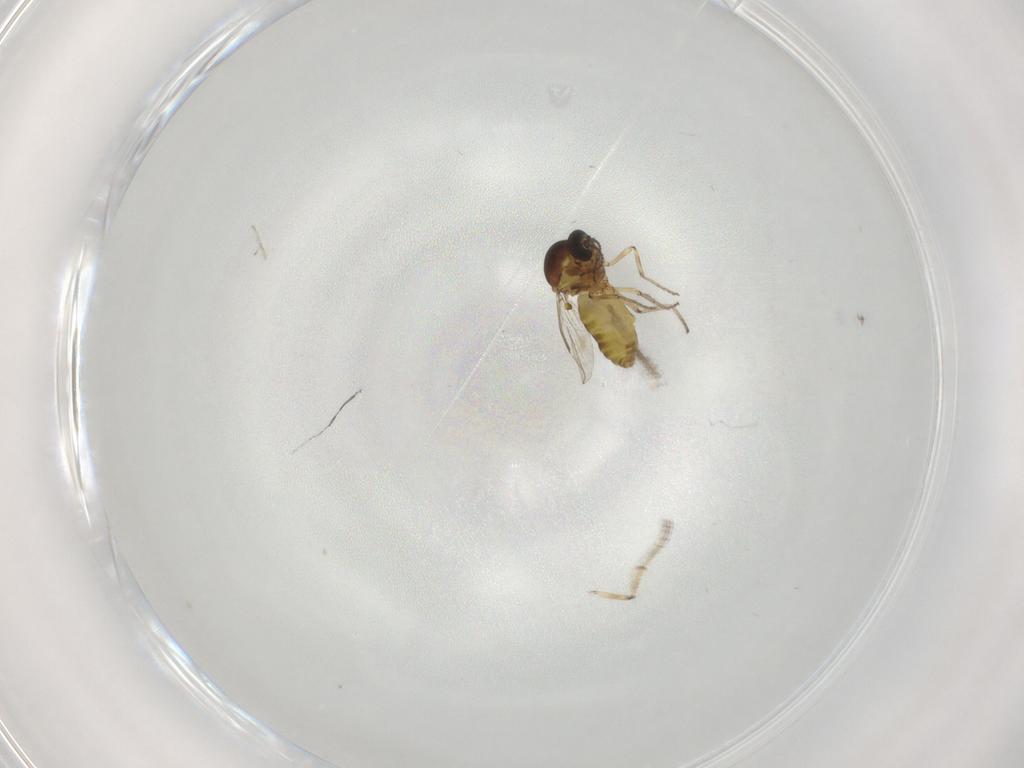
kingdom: Animalia
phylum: Arthropoda
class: Insecta
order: Diptera
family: Ceratopogonidae
